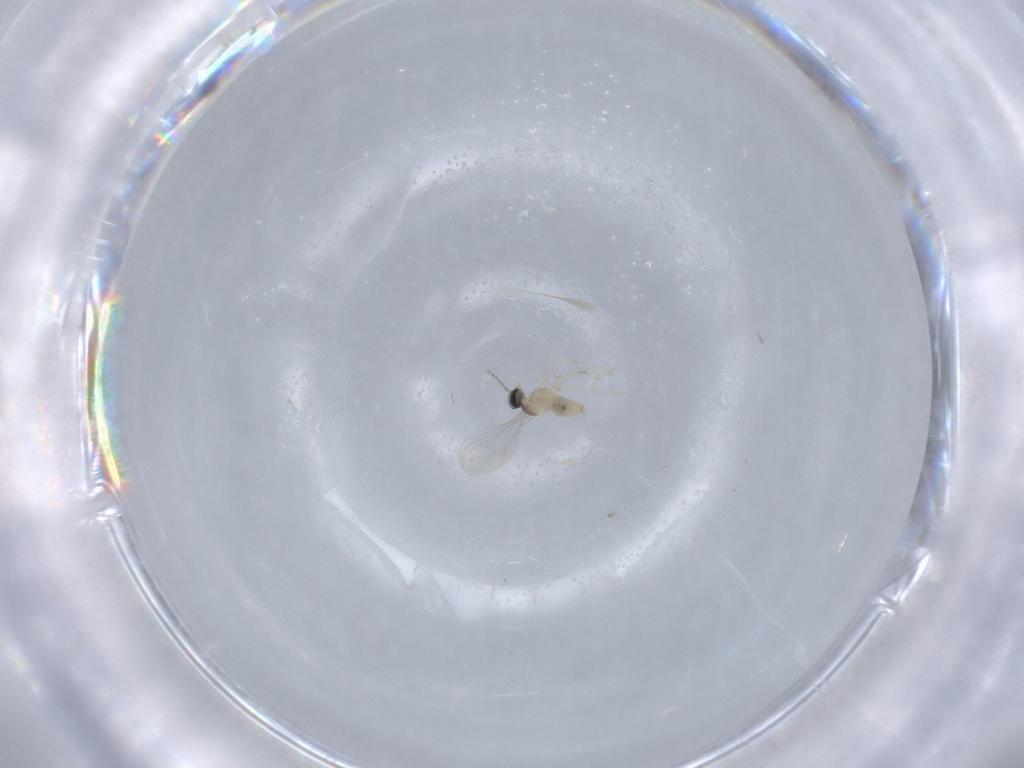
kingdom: Animalia
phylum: Arthropoda
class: Insecta
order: Diptera
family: Cecidomyiidae
